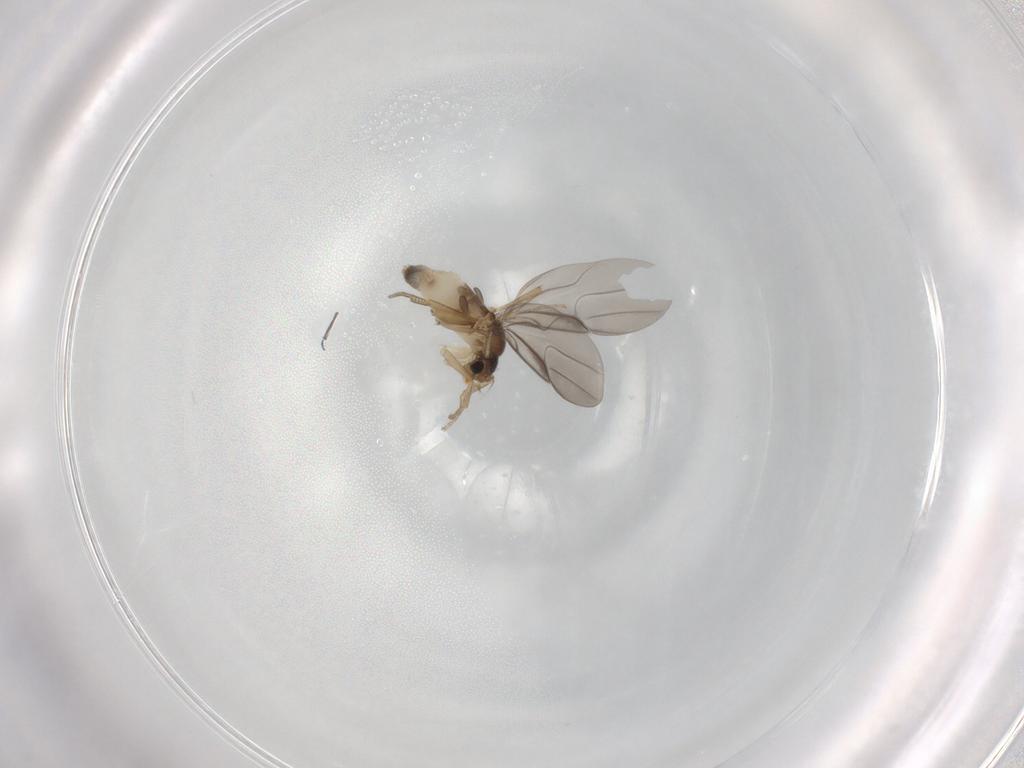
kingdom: Animalia
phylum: Arthropoda
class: Insecta
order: Diptera
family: Phoridae
